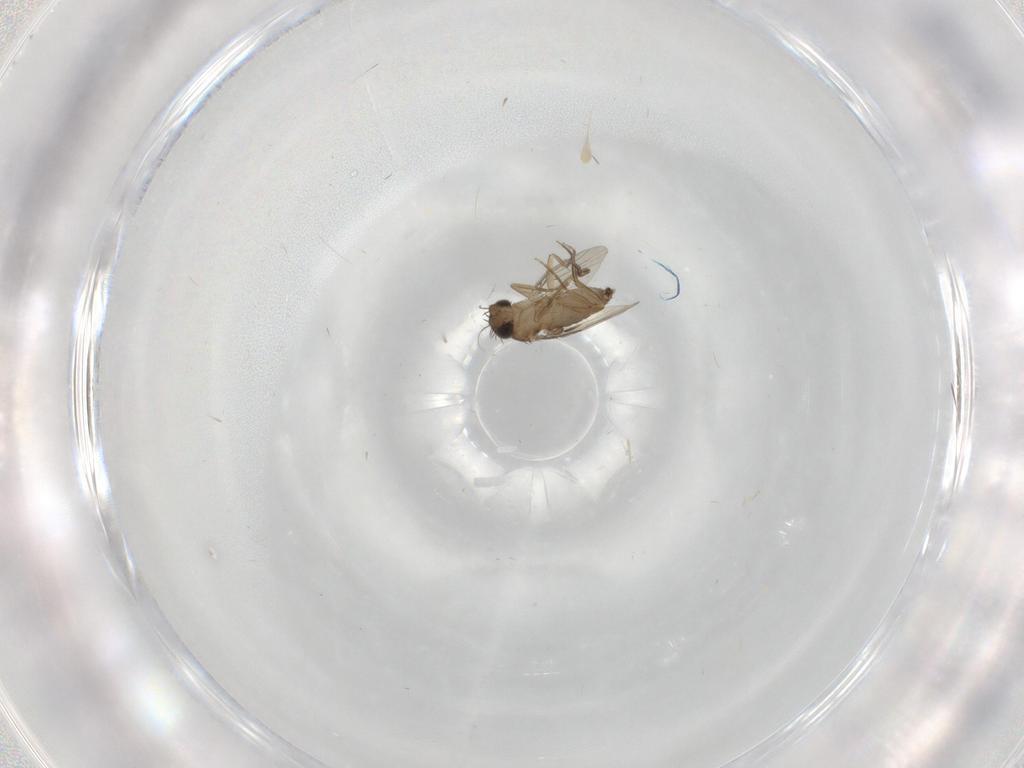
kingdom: Animalia
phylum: Arthropoda
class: Insecta
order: Diptera
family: Phoridae
